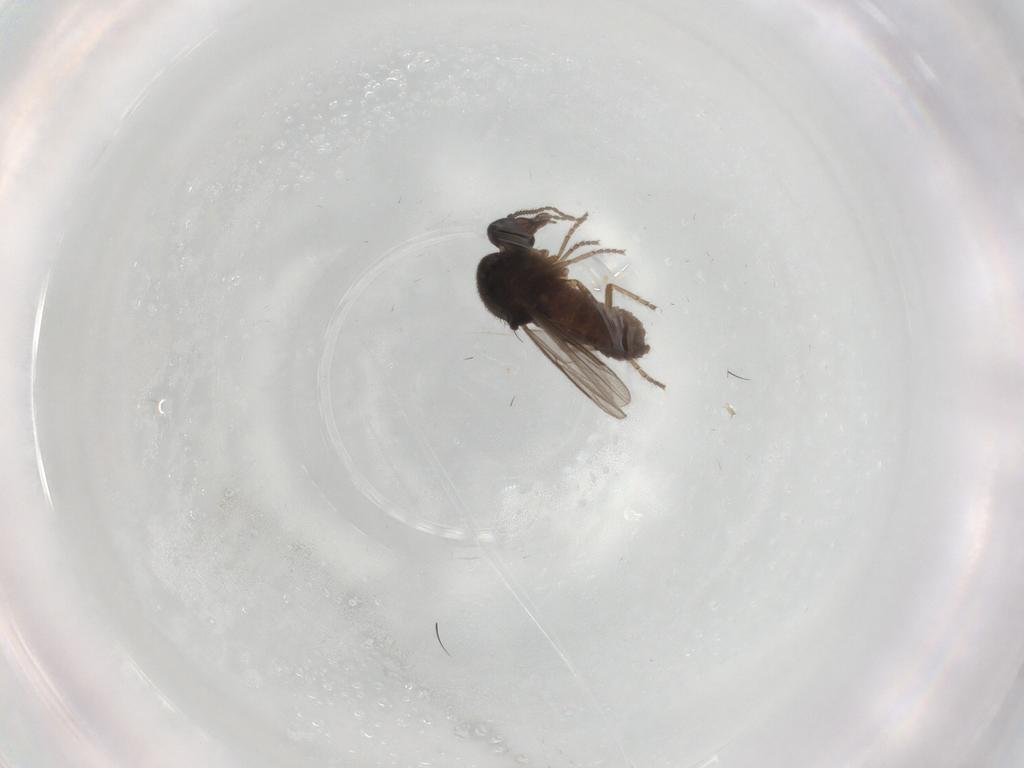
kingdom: Animalia
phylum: Arthropoda
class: Insecta
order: Diptera
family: Ceratopogonidae
